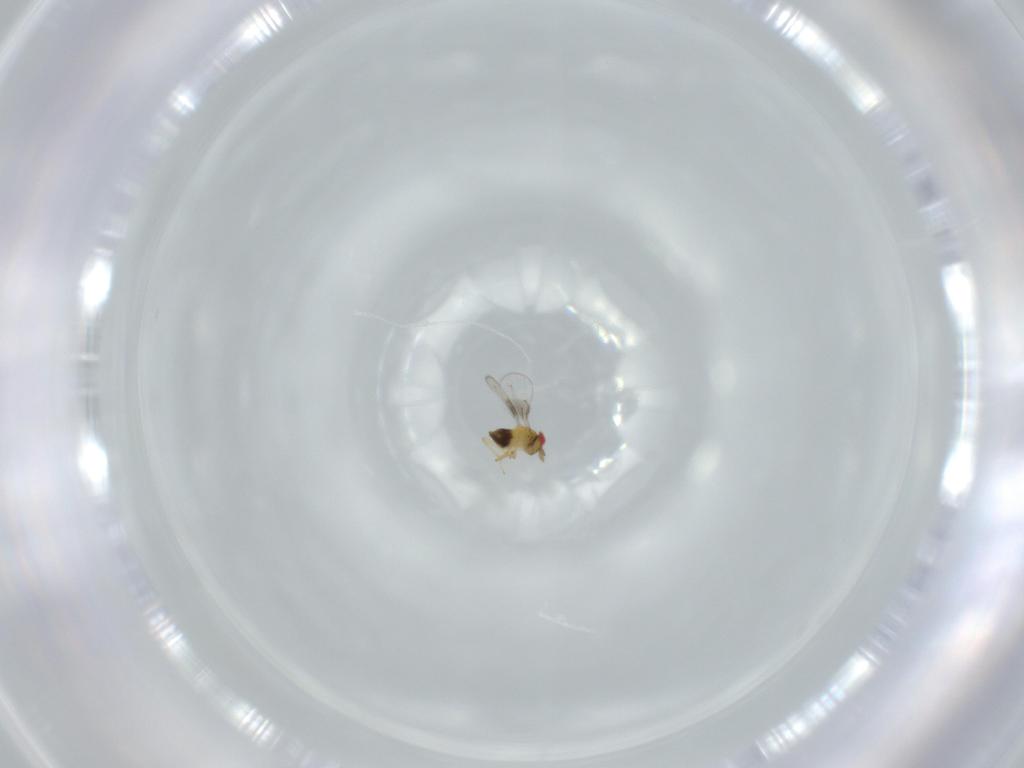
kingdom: Animalia
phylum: Arthropoda
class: Insecta
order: Hymenoptera
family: Trichogrammatidae
